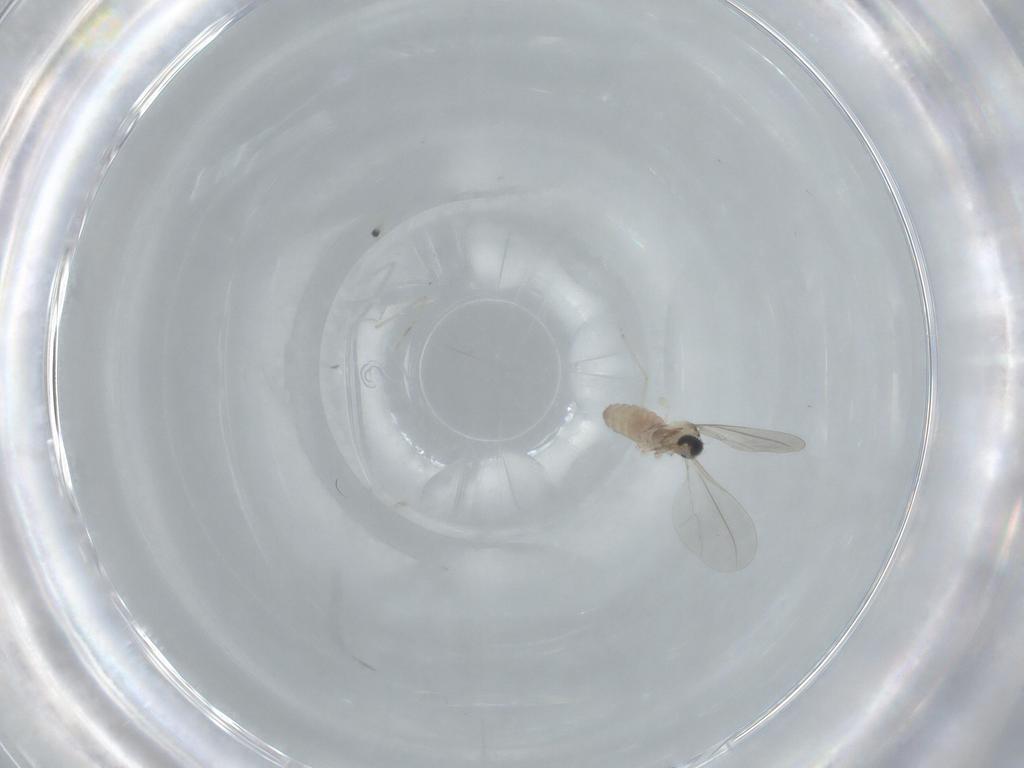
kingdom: Animalia
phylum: Arthropoda
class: Insecta
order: Diptera
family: Cecidomyiidae
